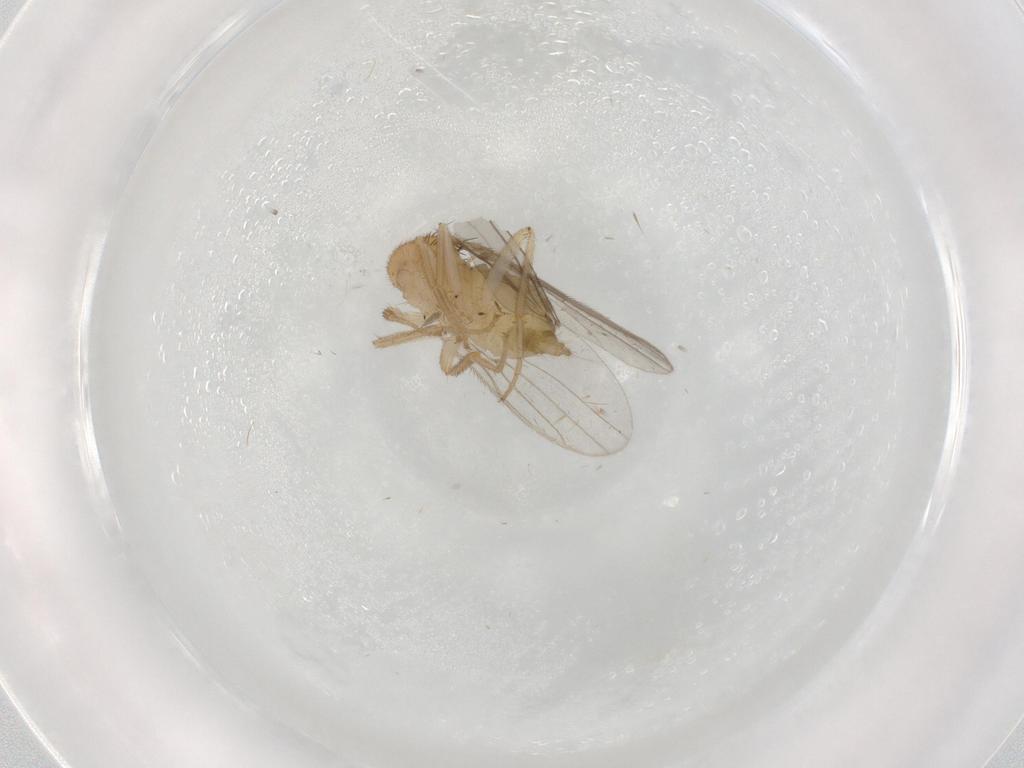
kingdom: Animalia
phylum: Arthropoda
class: Insecta
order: Diptera
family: Hybotidae
